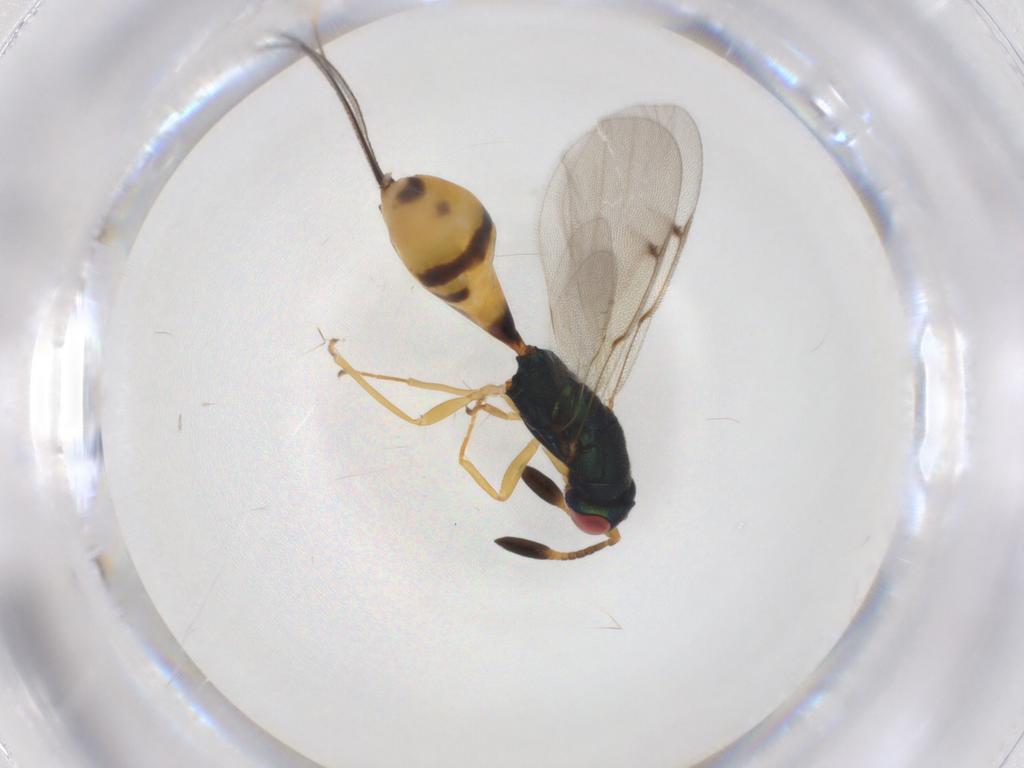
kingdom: Animalia
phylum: Arthropoda
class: Insecta
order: Hymenoptera
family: Torymidae
